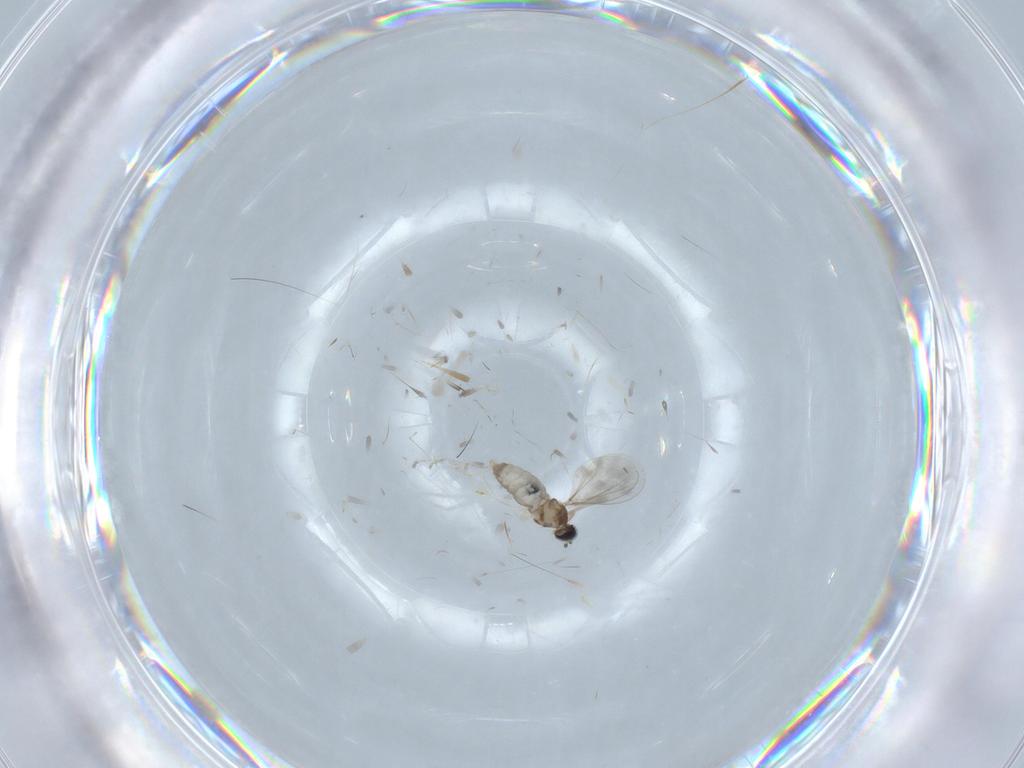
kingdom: Animalia
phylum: Arthropoda
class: Insecta
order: Diptera
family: Cecidomyiidae
